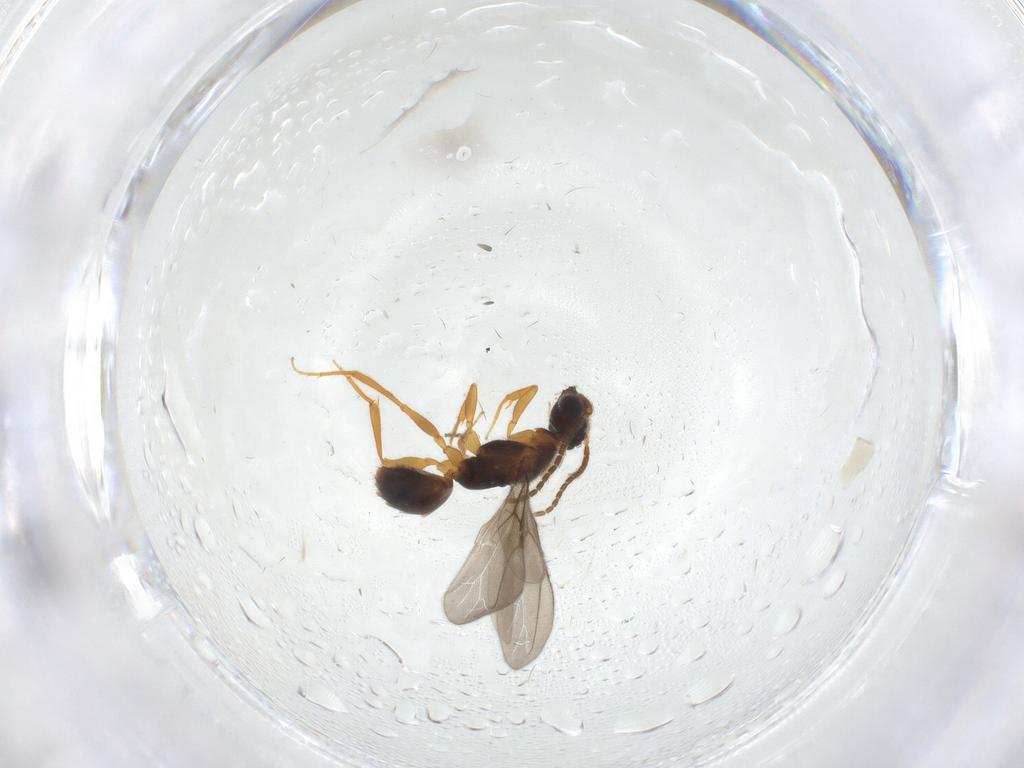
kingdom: Animalia
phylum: Arthropoda
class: Insecta
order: Hymenoptera
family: Bethylidae
